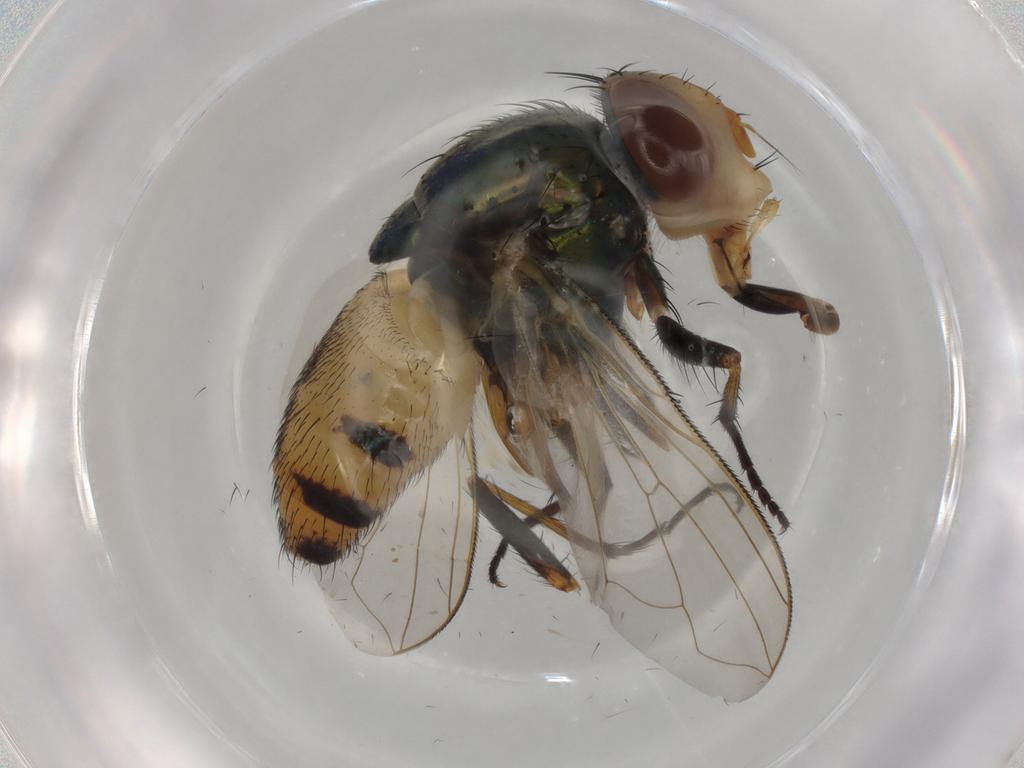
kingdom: Animalia
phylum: Arthropoda
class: Insecta
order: Diptera
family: Calliphoridae
